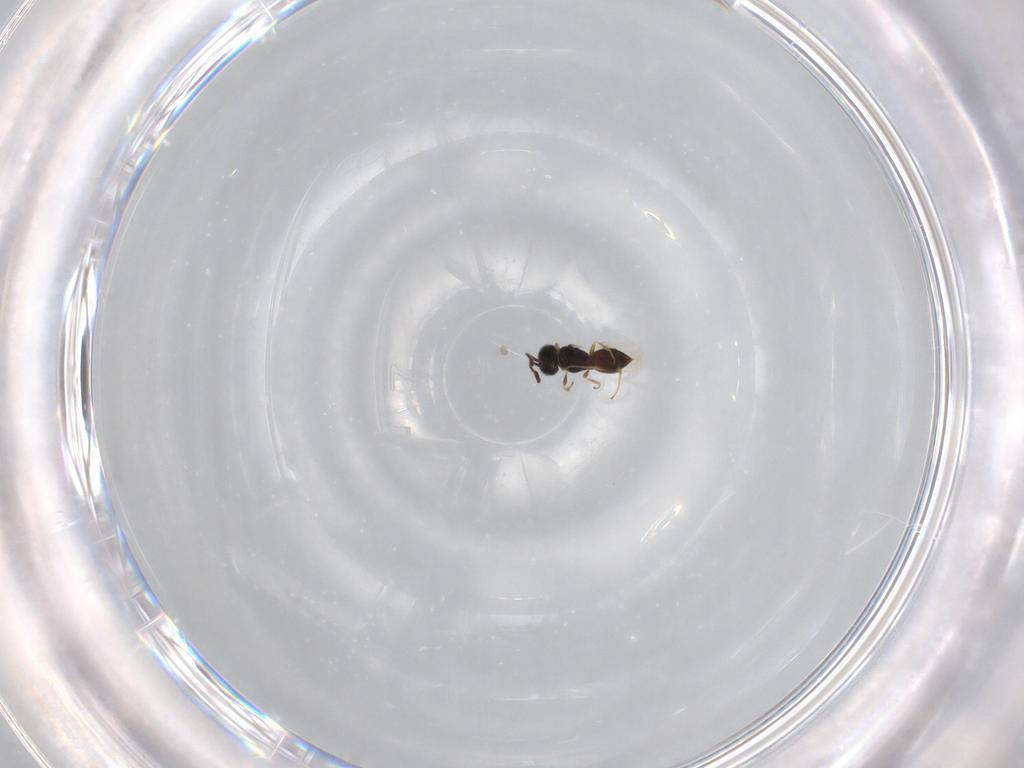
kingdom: Animalia
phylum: Arthropoda
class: Insecta
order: Hymenoptera
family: Scelionidae
